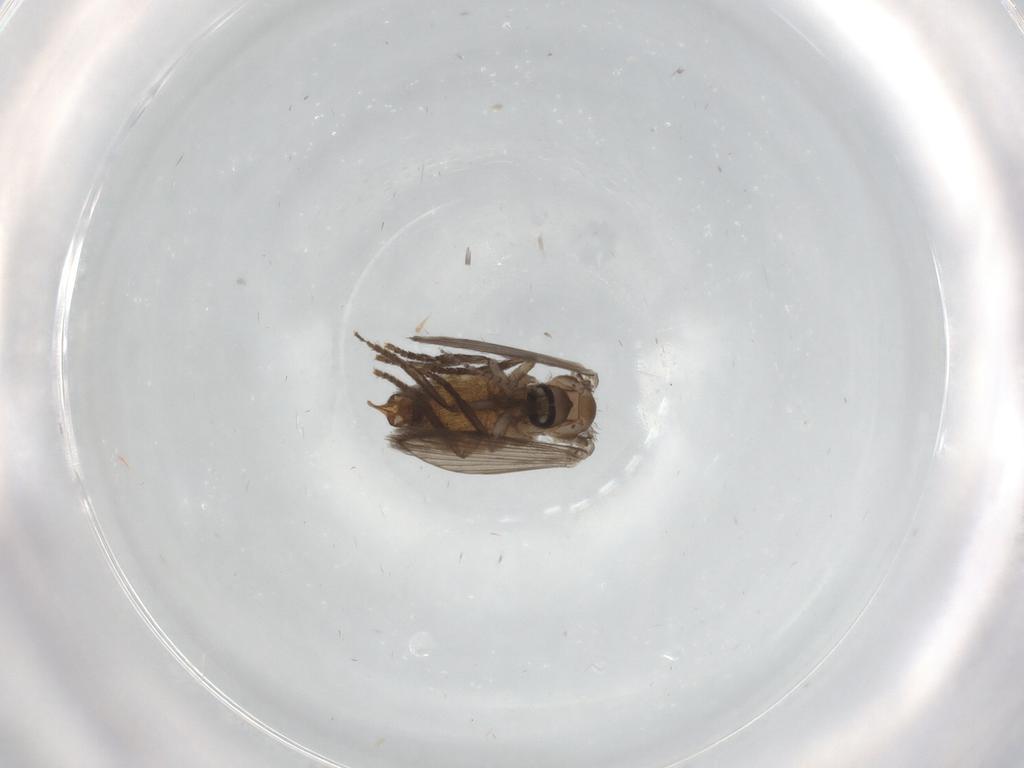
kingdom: Animalia
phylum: Arthropoda
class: Insecta
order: Diptera
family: Psychodidae
